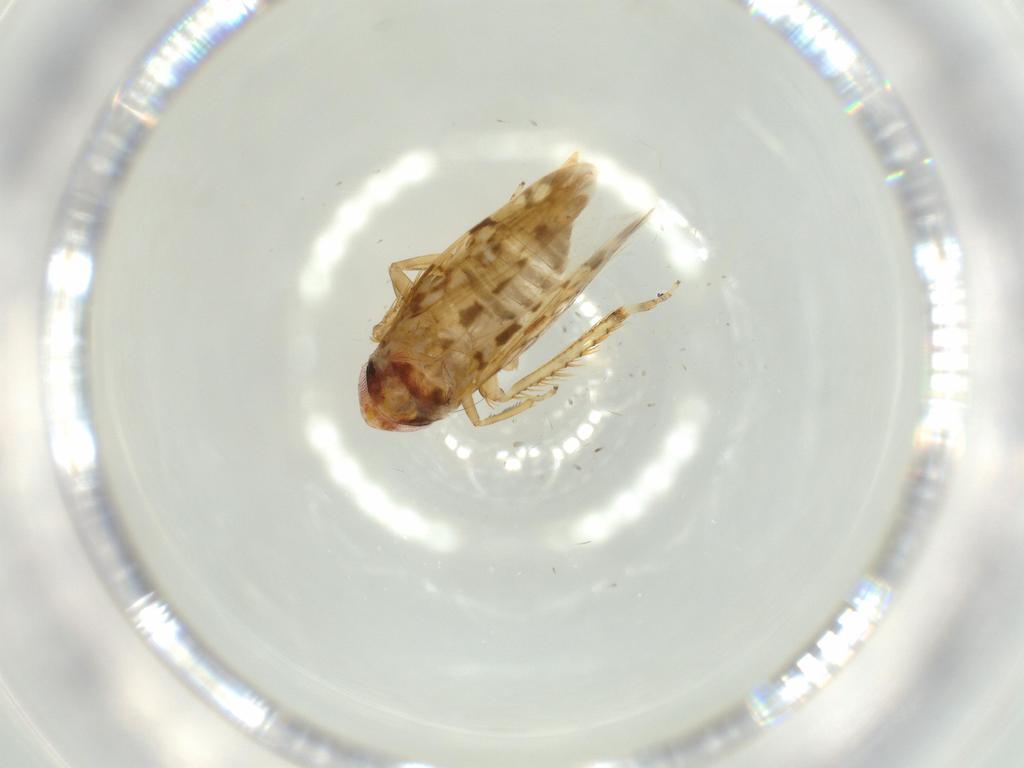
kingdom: Animalia
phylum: Arthropoda
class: Insecta
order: Hemiptera
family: Cicadellidae
